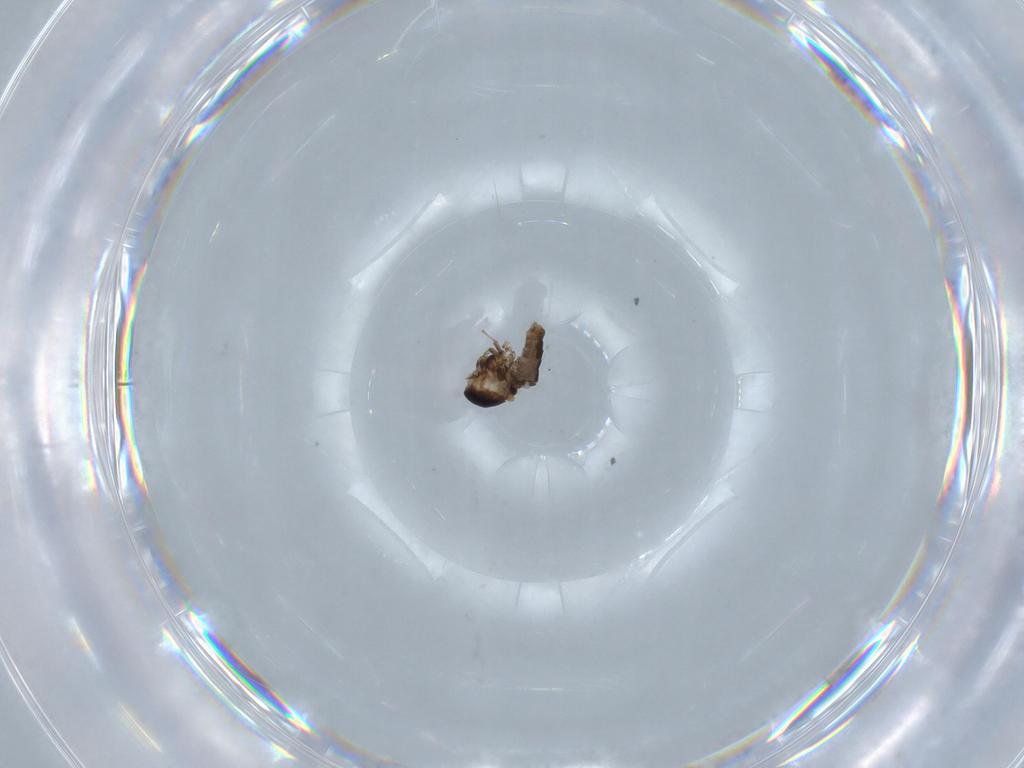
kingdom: Animalia
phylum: Arthropoda
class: Insecta
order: Diptera
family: Ceratopogonidae
